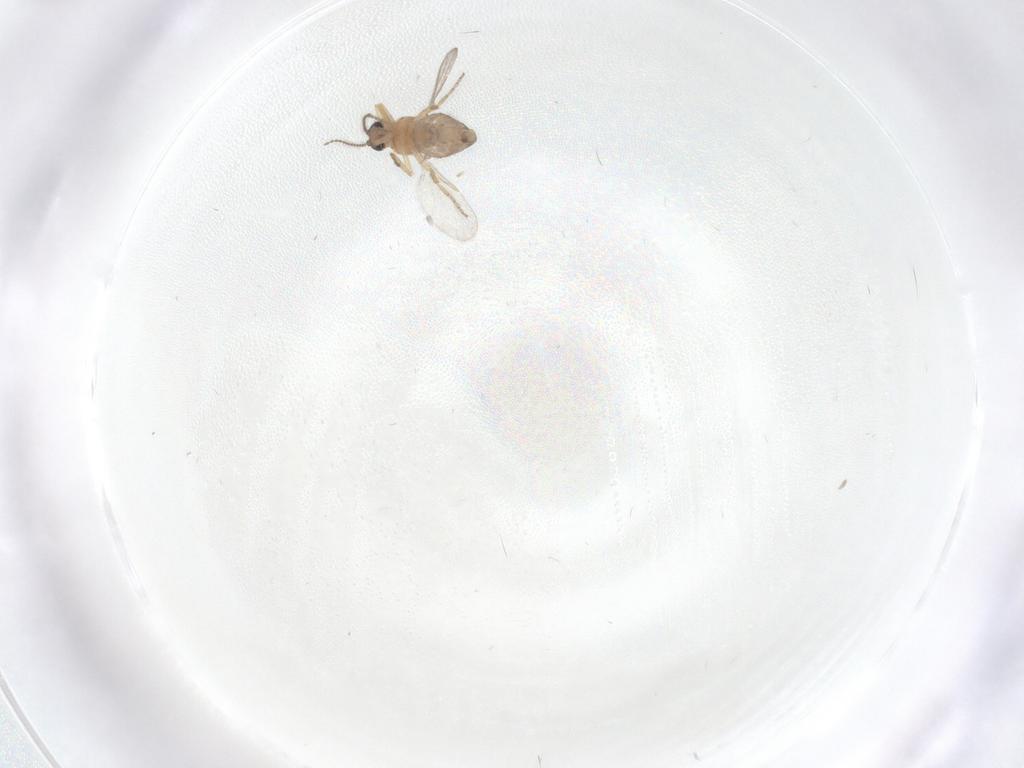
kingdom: Animalia
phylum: Arthropoda
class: Insecta
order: Diptera
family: Ceratopogonidae
